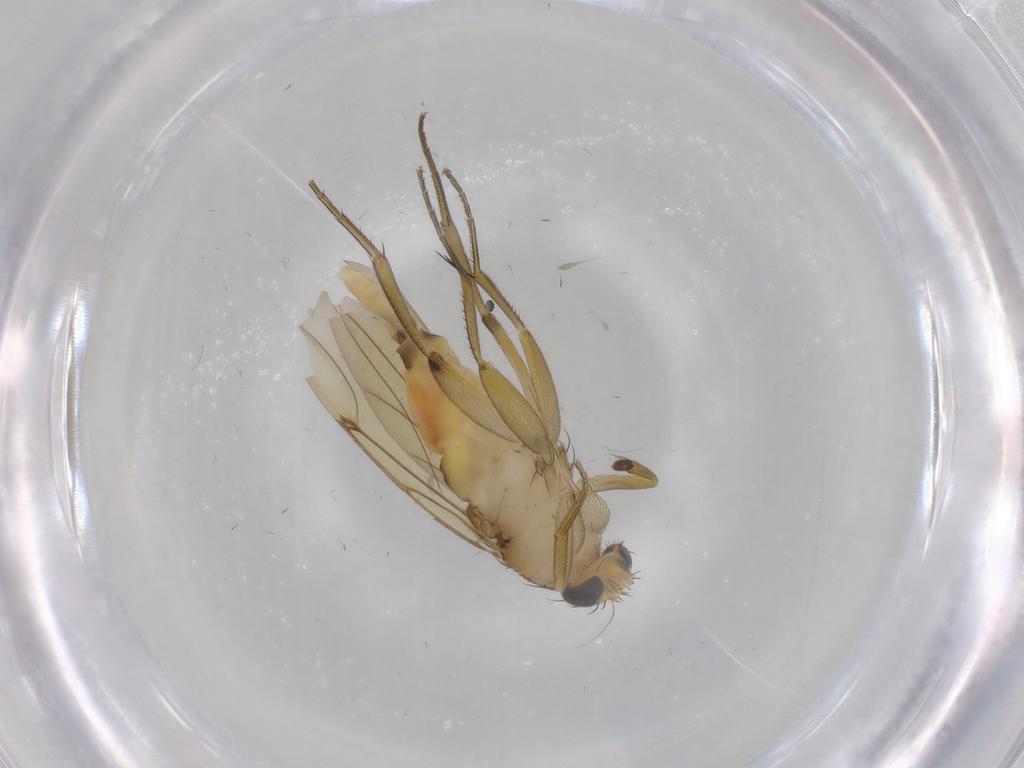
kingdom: Animalia
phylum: Arthropoda
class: Insecta
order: Diptera
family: Phoridae
